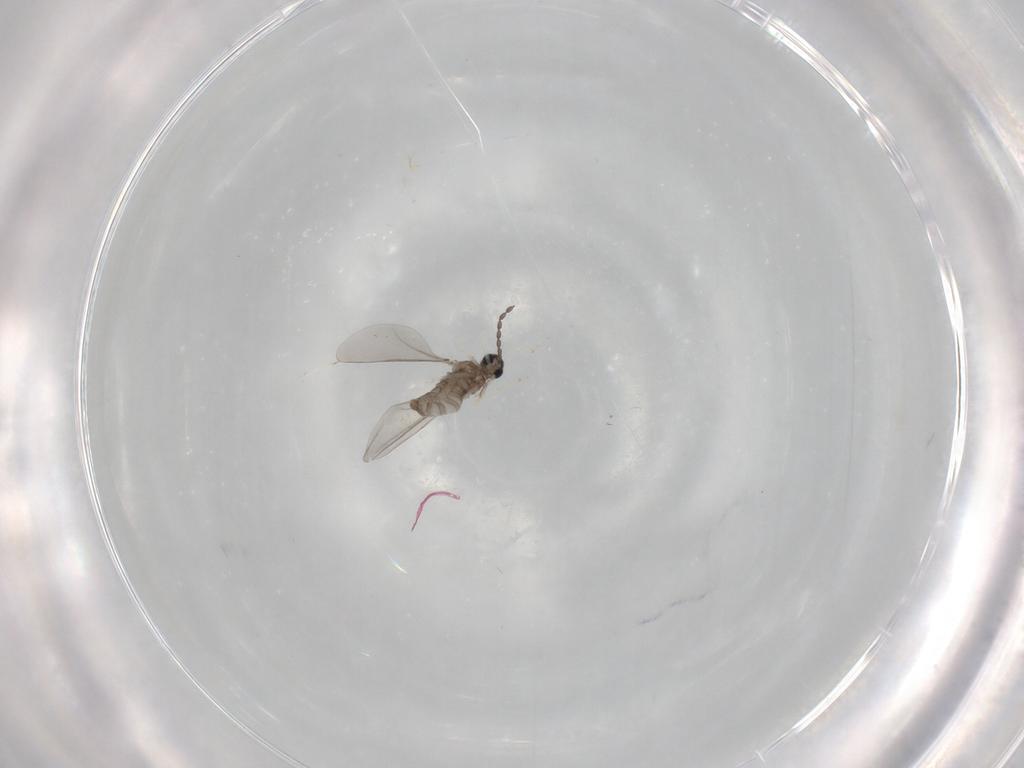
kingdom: Animalia
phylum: Arthropoda
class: Insecta
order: Diptera
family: Cecidomyiidae
